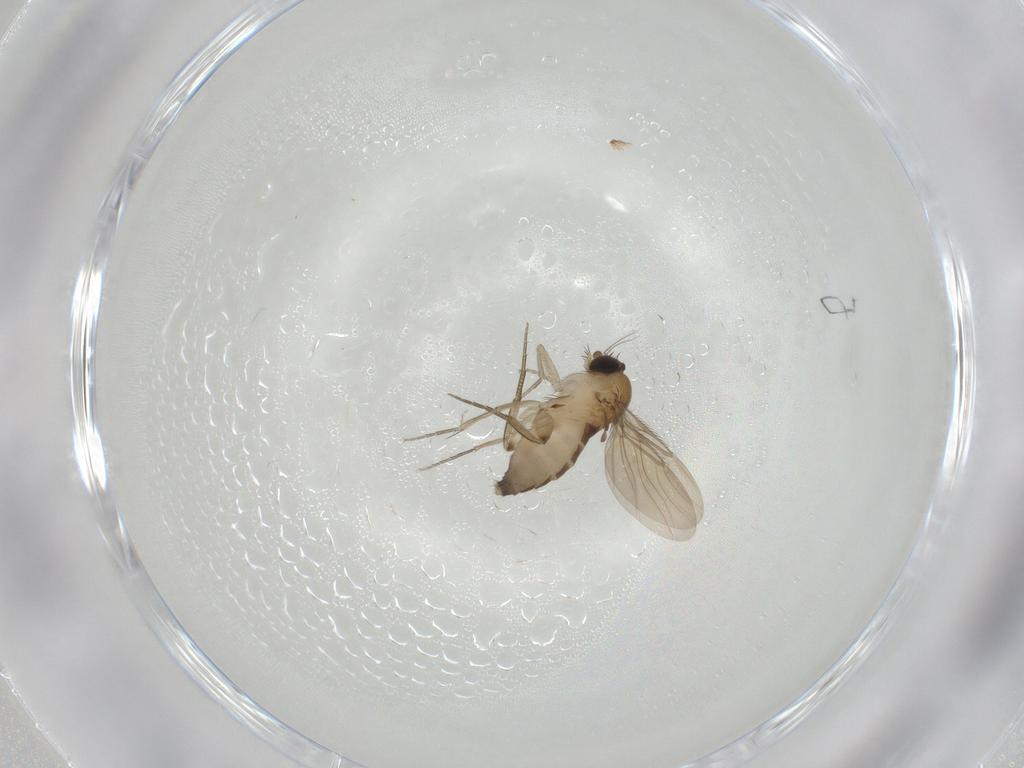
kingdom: Animalia
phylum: Arthropoda
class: Insecta
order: Diptera
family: Phoridae
